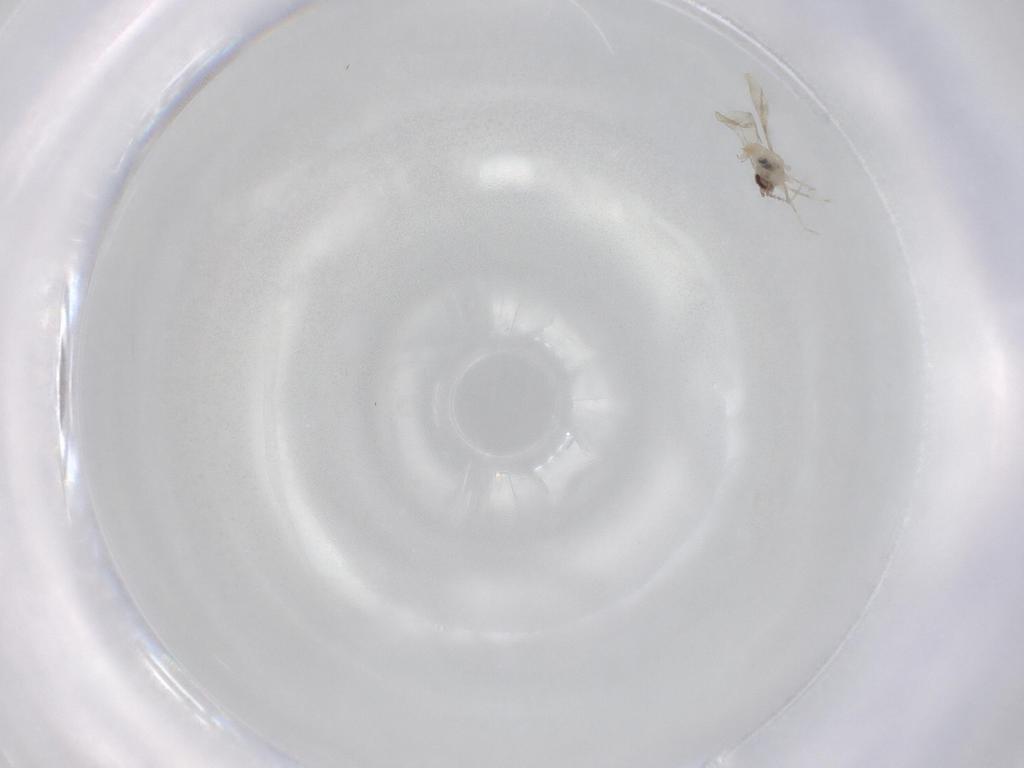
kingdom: Animalia
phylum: Arthropoda
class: Insecta
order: Diptera
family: Cecidomyiidae
